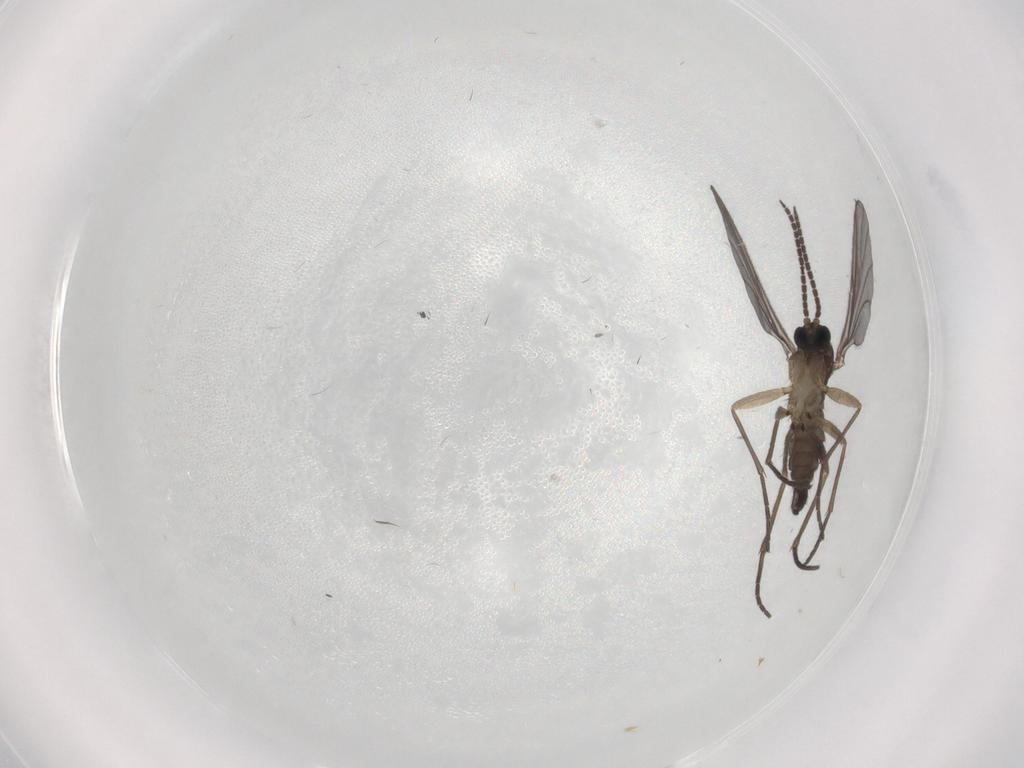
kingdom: Animalia
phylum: Arthropoda
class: Insecta
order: Diptera
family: Sciaridae
